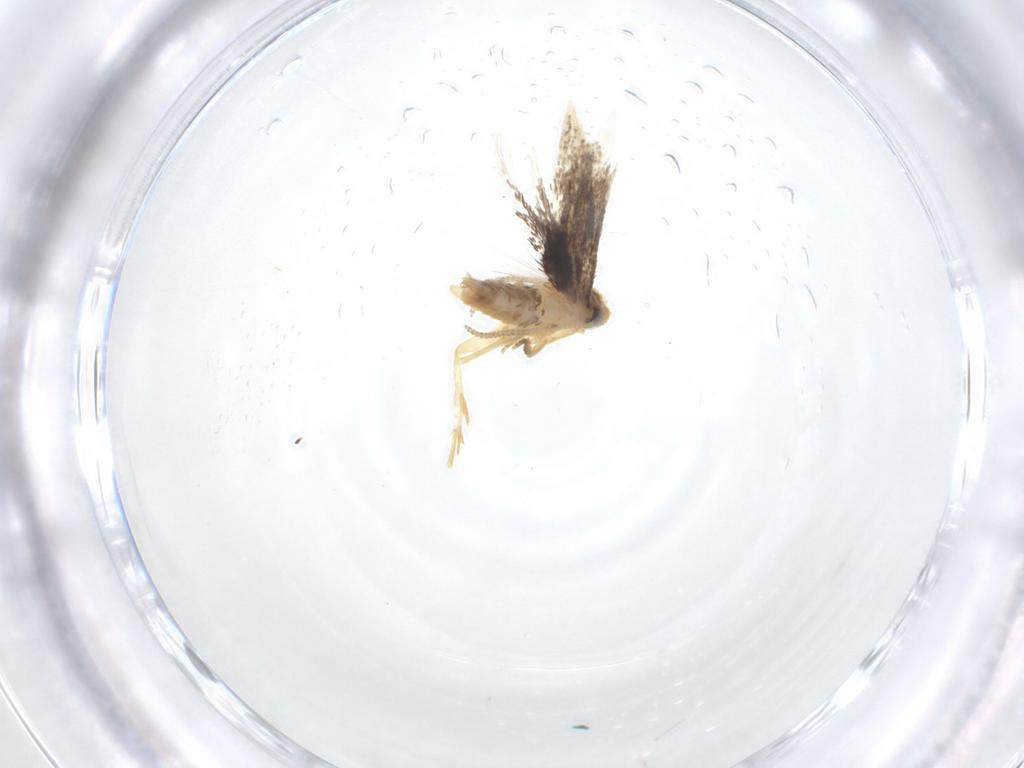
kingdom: Animalia
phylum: Arthropoda
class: Insecta
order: Lepidoptera
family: Nepticulidae
